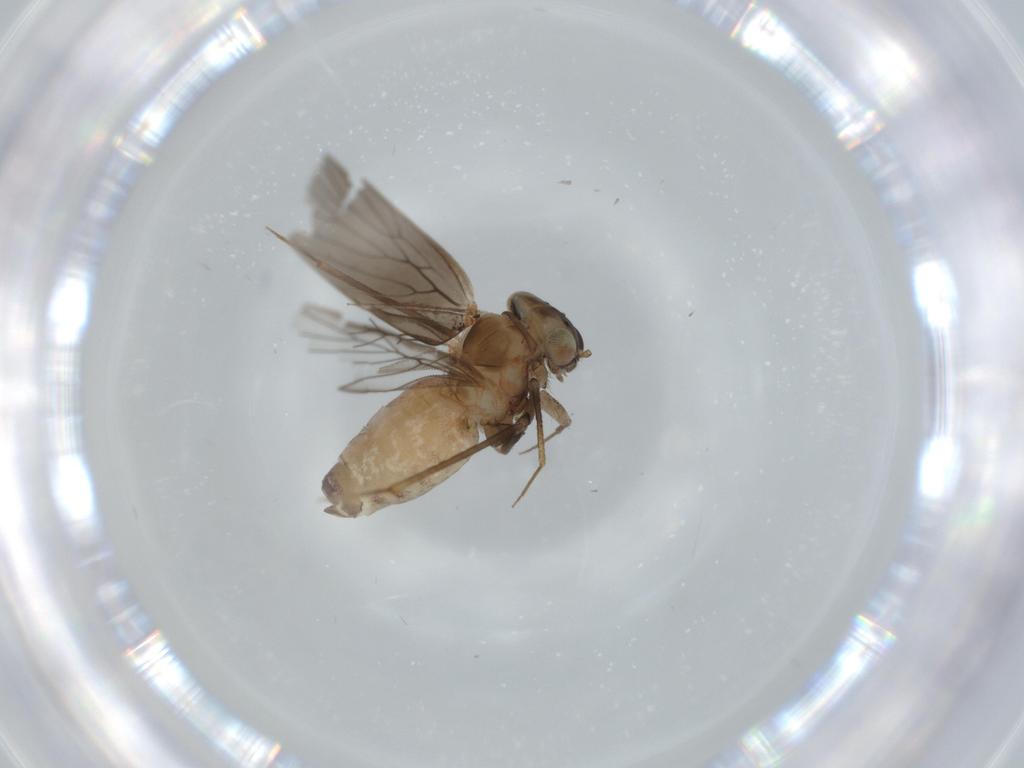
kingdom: Animalia
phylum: Arthropoda
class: Insecta
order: Psocodea
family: Lepidopsocidae
